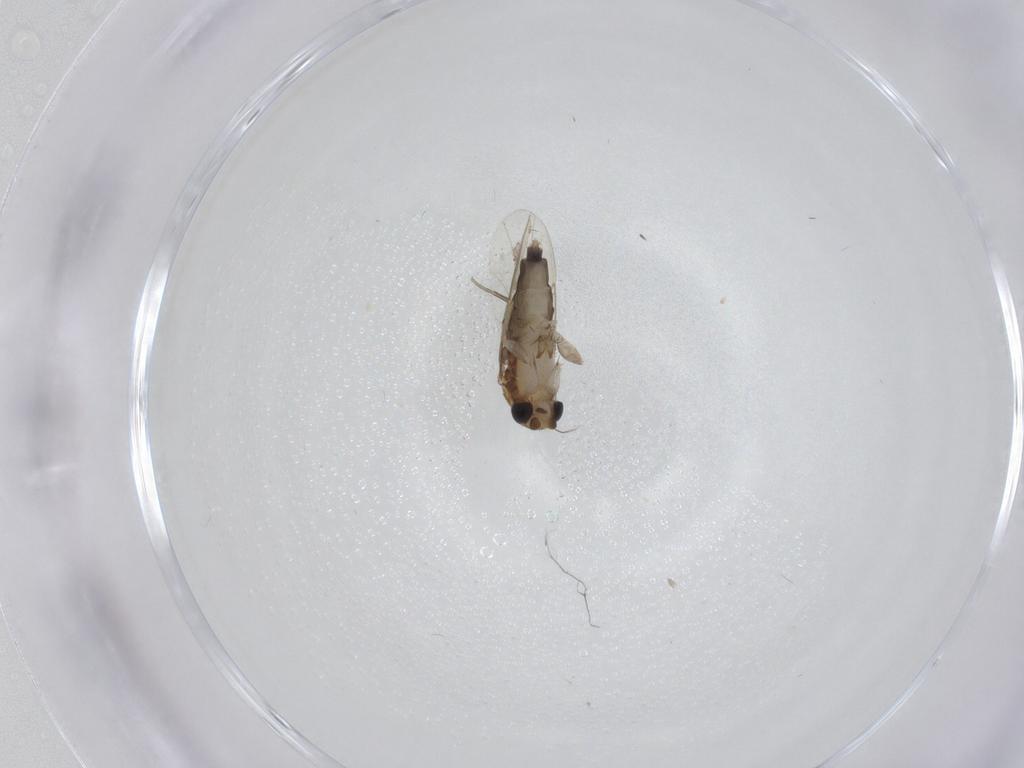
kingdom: Animalia
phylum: Arthropoda
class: Insecta
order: Diptera
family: Phoridae
